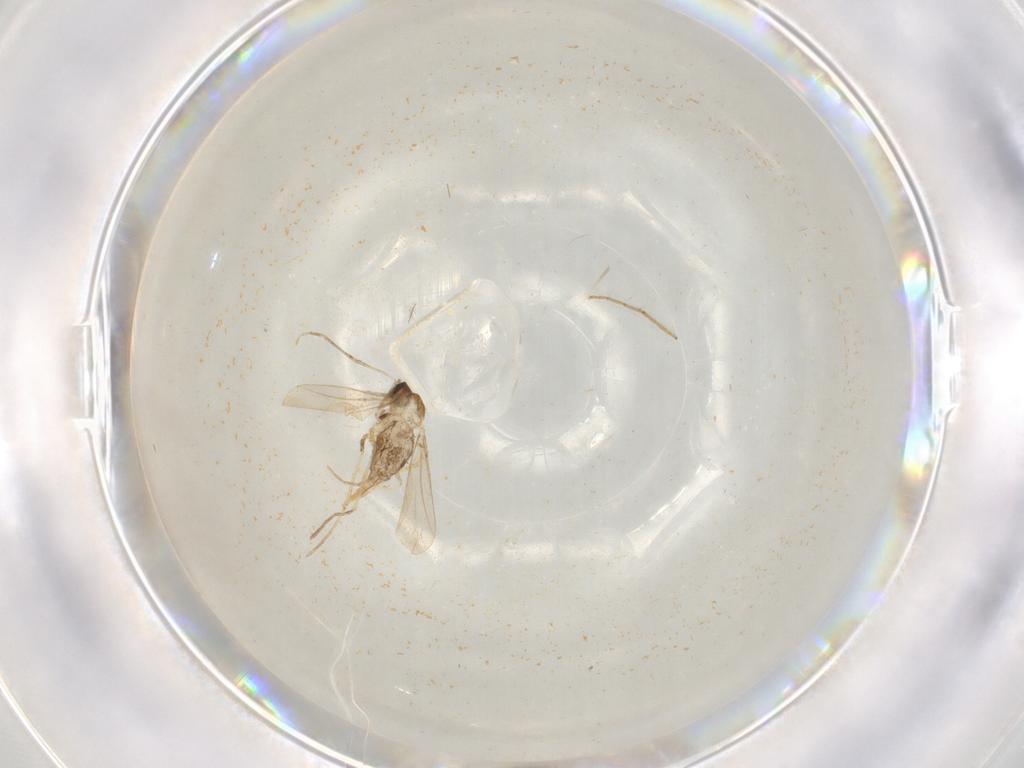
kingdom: Animalia
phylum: Arthropoda
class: Insecta
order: Diptera
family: Cecidomyiidae
